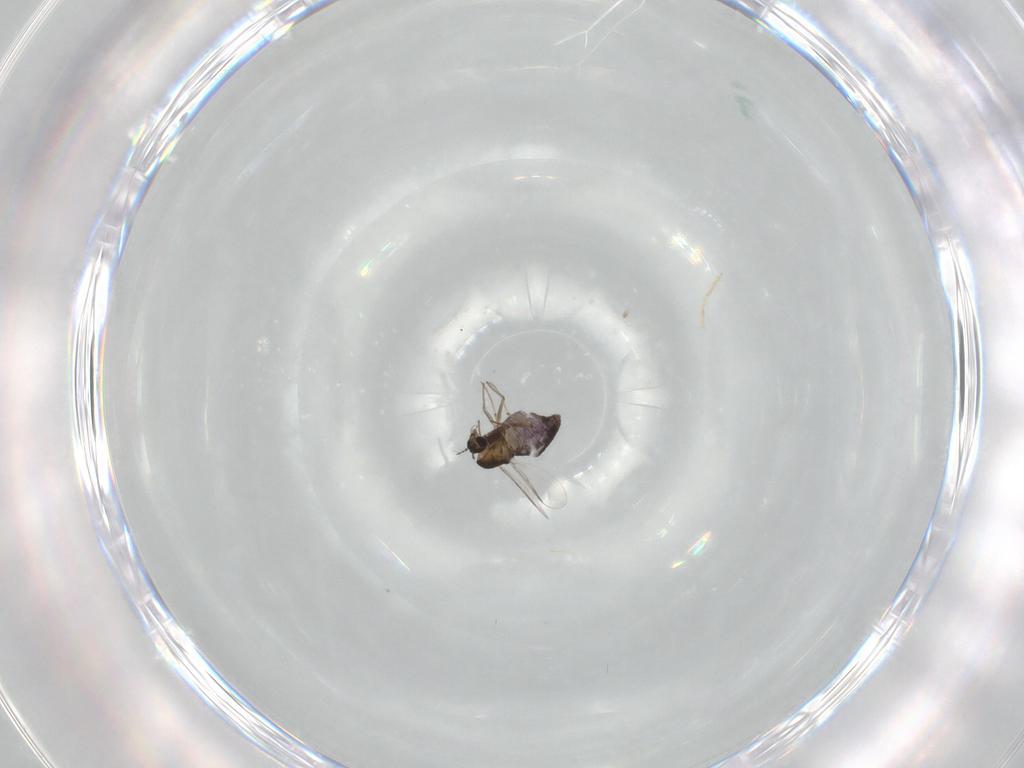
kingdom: Animalia
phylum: Arthropoda
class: Insecta
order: Diptera
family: Chironomidae
